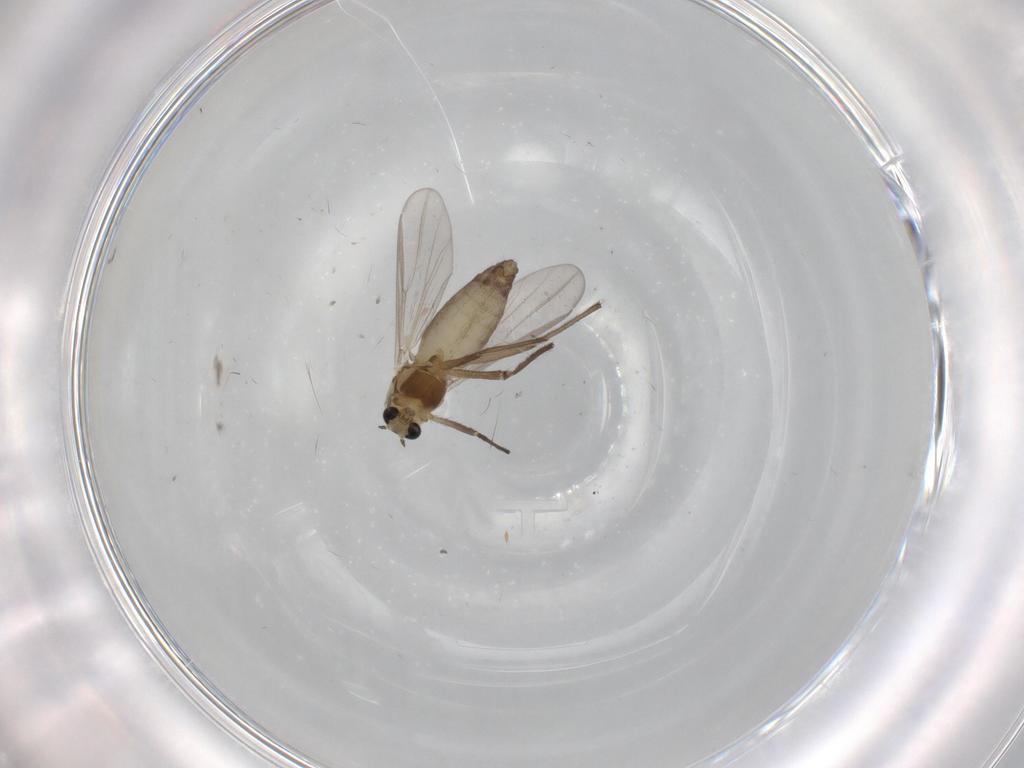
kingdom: Animalia
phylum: Arthropoda
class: Insecta
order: Diptera
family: Chironomidae
